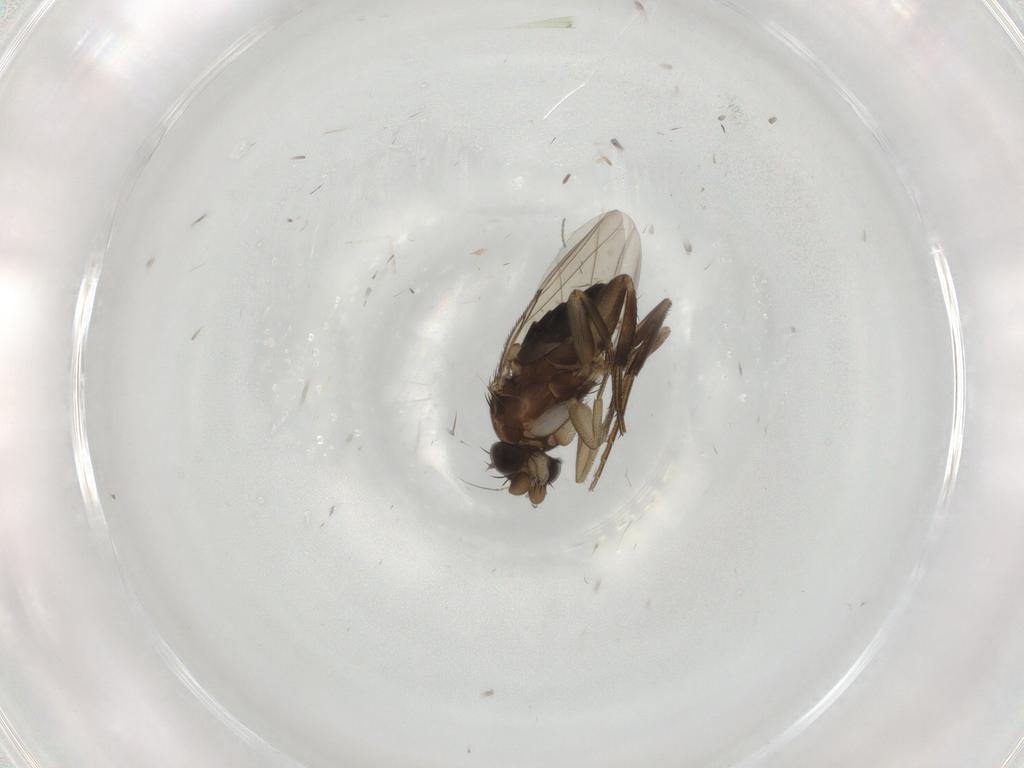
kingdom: Animalia
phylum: Arthropoda
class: Insecta
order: Diptera
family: Phoridae
